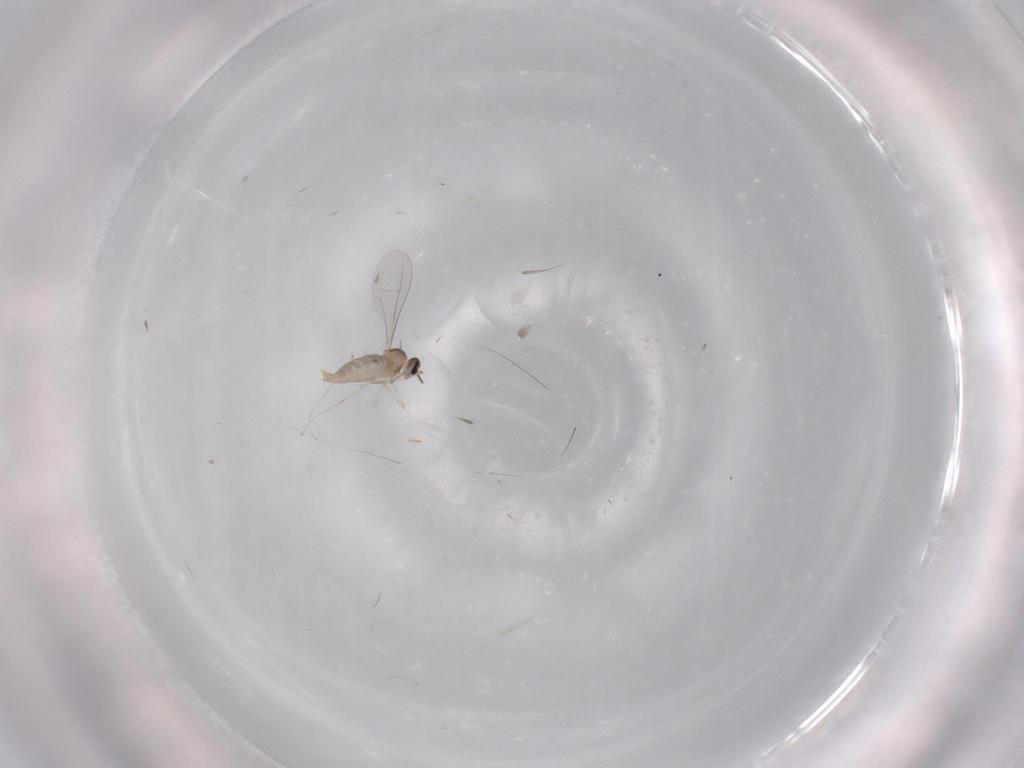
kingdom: Animalia
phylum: Arthropoda
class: Insecta
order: Diptera
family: Cecidomyiidae
